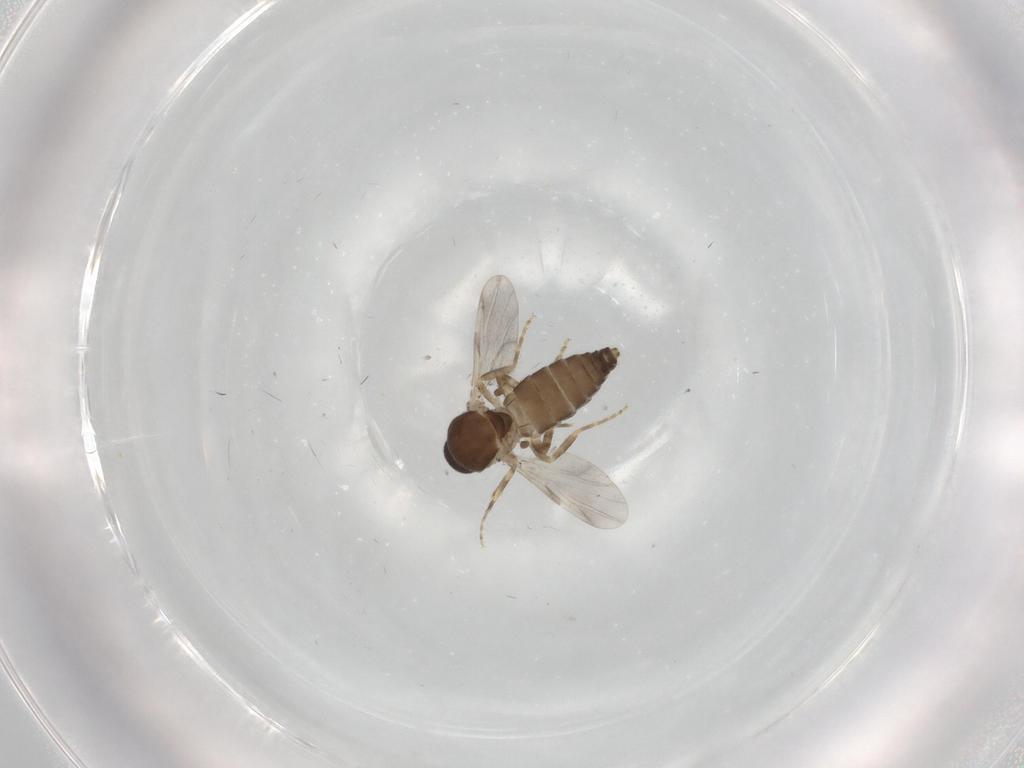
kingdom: Animalia
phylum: Arthropoda
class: Insecta
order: Diptera
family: Ceratopogonidae
